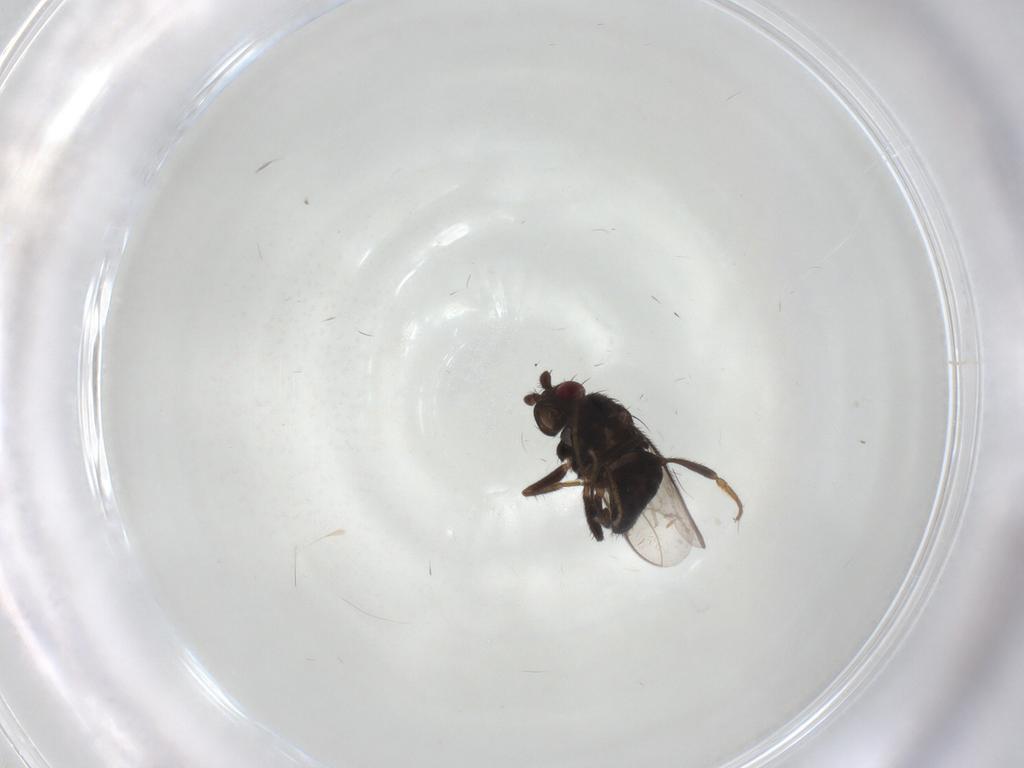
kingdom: Animalia
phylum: Arthropoda
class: Insecta
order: Diptera
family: Sphaeroceridae
